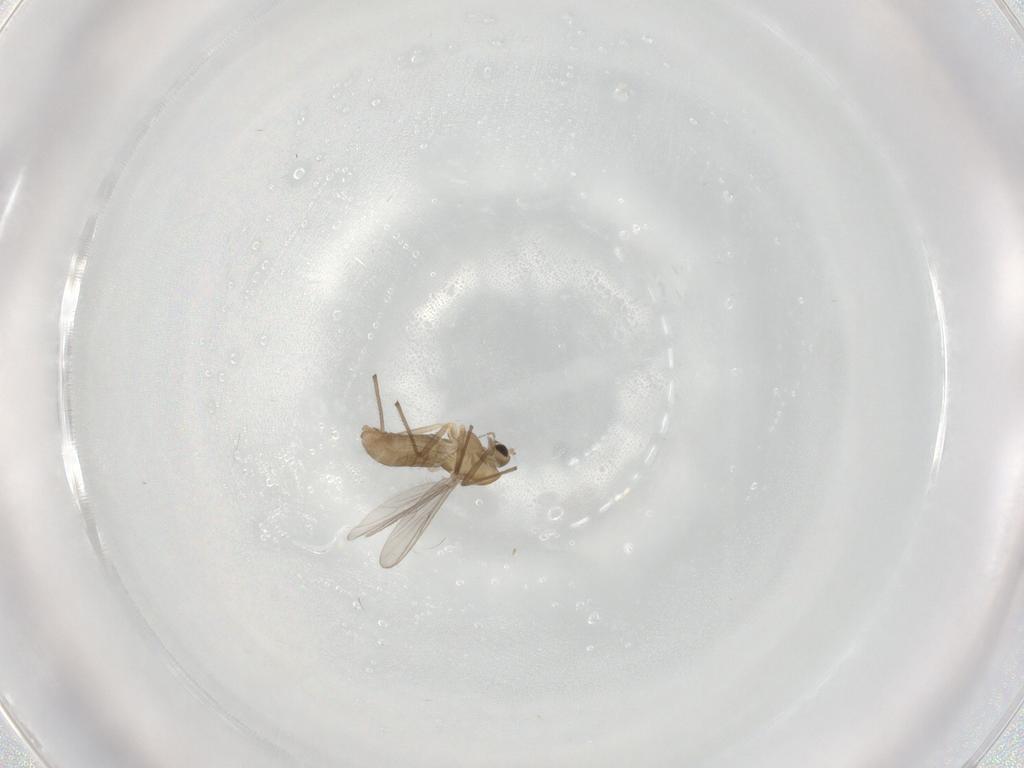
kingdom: Animalia
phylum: Arthropoda
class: Insecta
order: Diptera
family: Chironomidae
